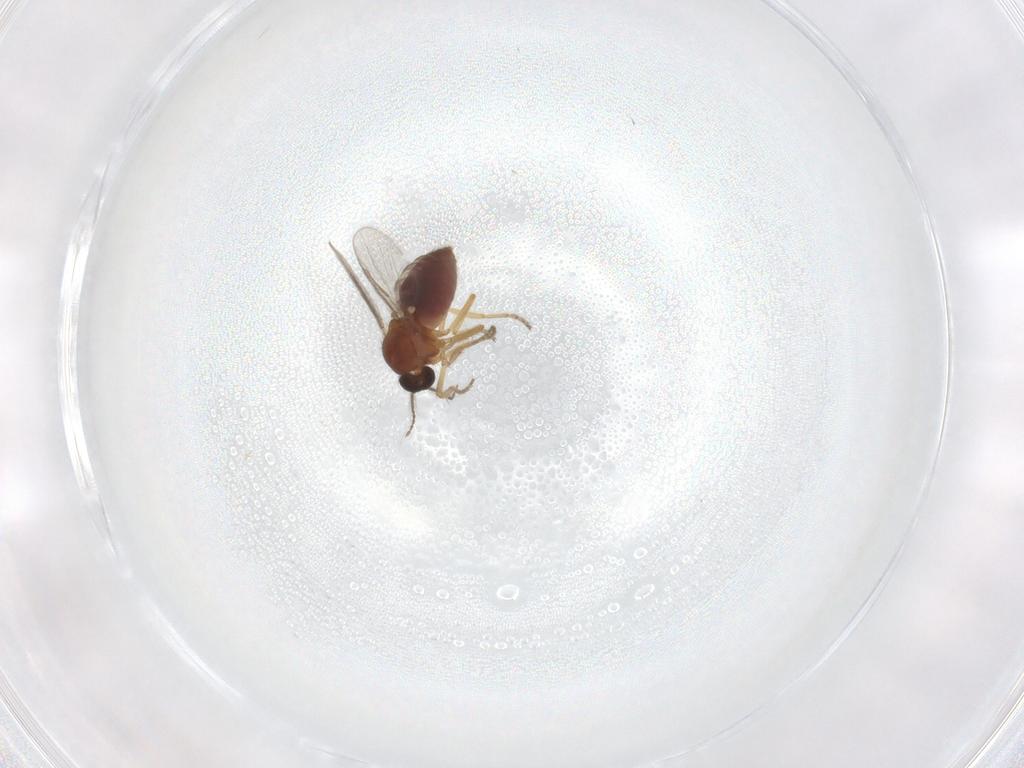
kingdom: Animalia
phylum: Arthropoda
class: Insecta
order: Diptera
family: Ceratopogonidae
